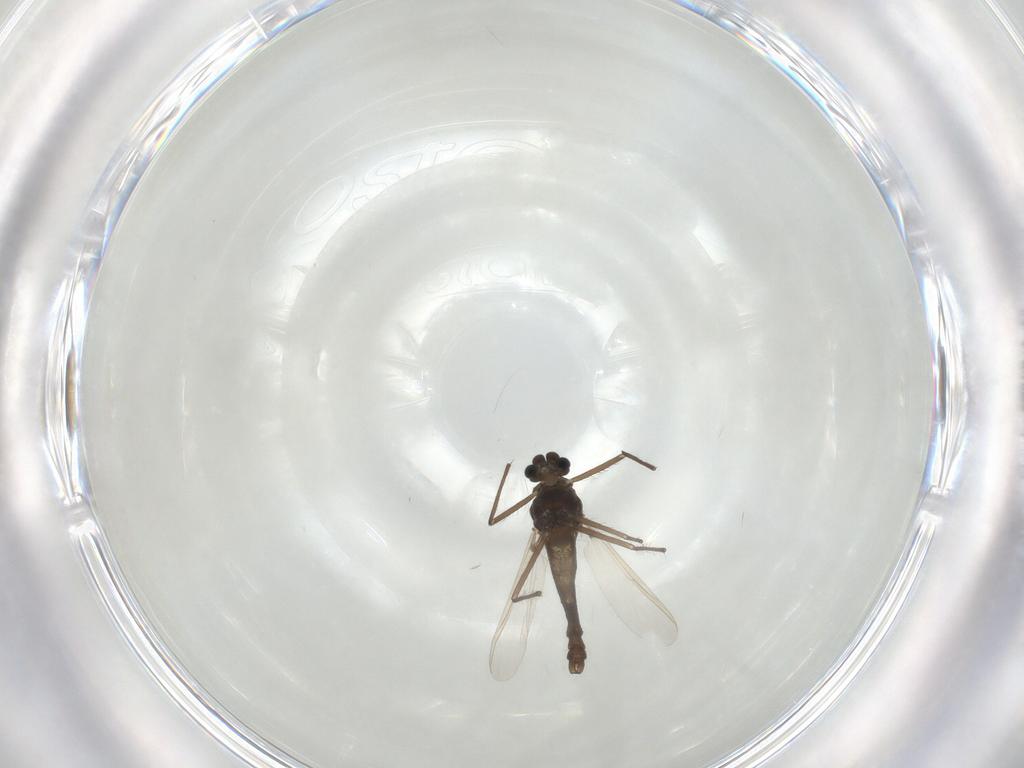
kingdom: Animalia
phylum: Arthropoda
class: Insecta
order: Diptera
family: Chironomidae
